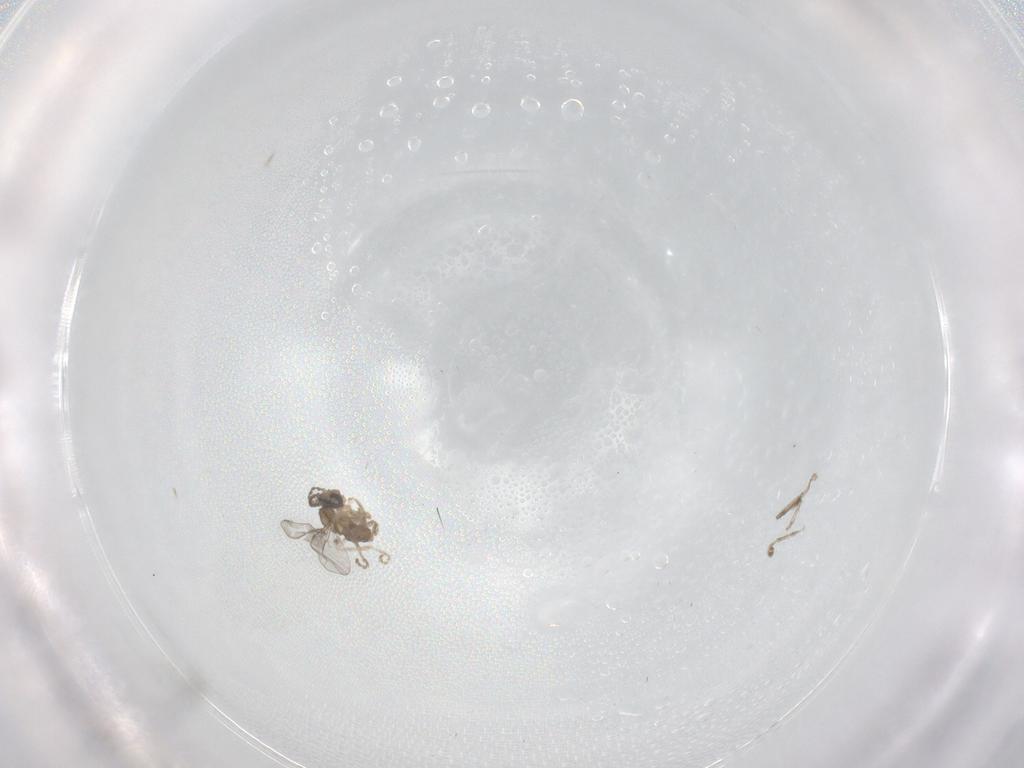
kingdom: Animalia
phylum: Arthropoda
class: Insecta
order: Diptera
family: Cecidomyiidae
